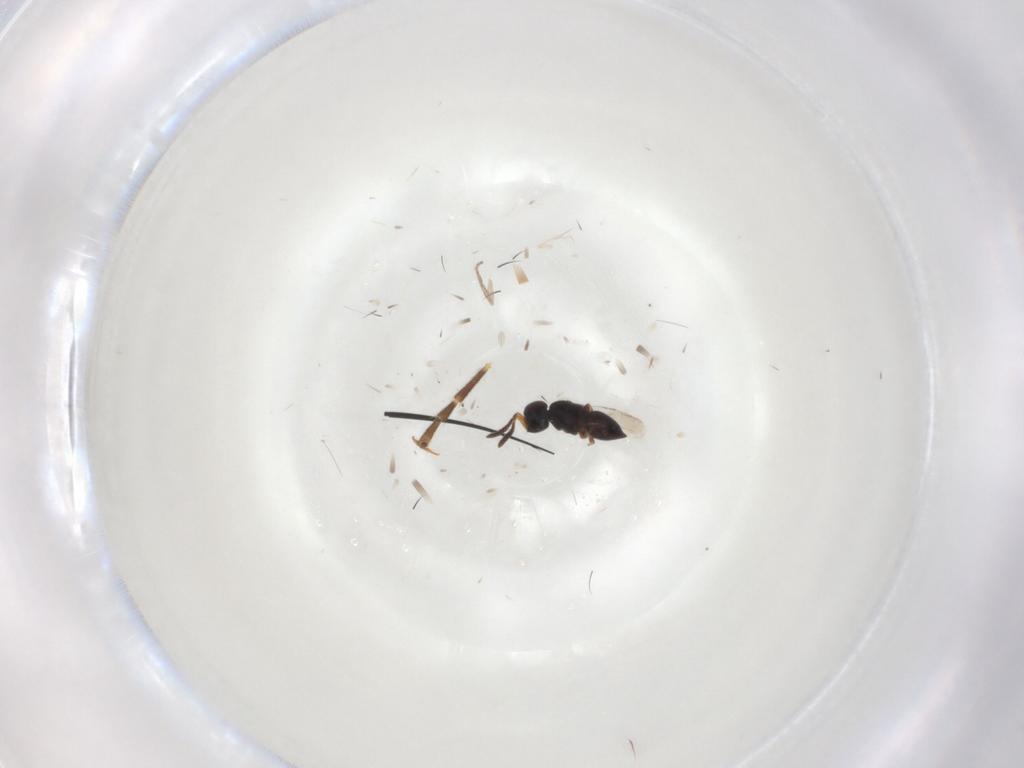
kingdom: Animalia
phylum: Arthropoda
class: Insecta
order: Hymenoptera
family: Formicidae
